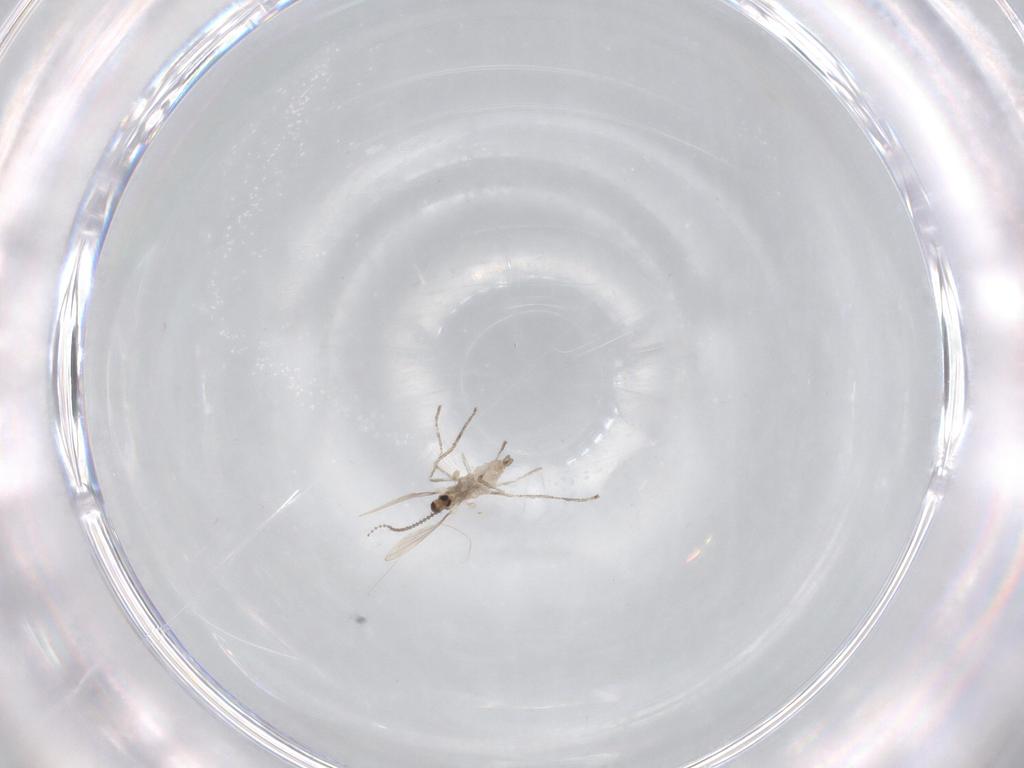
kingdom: Animalia
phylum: Arthropoda
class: Insecta
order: Diptera
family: Cecidomyiidae
